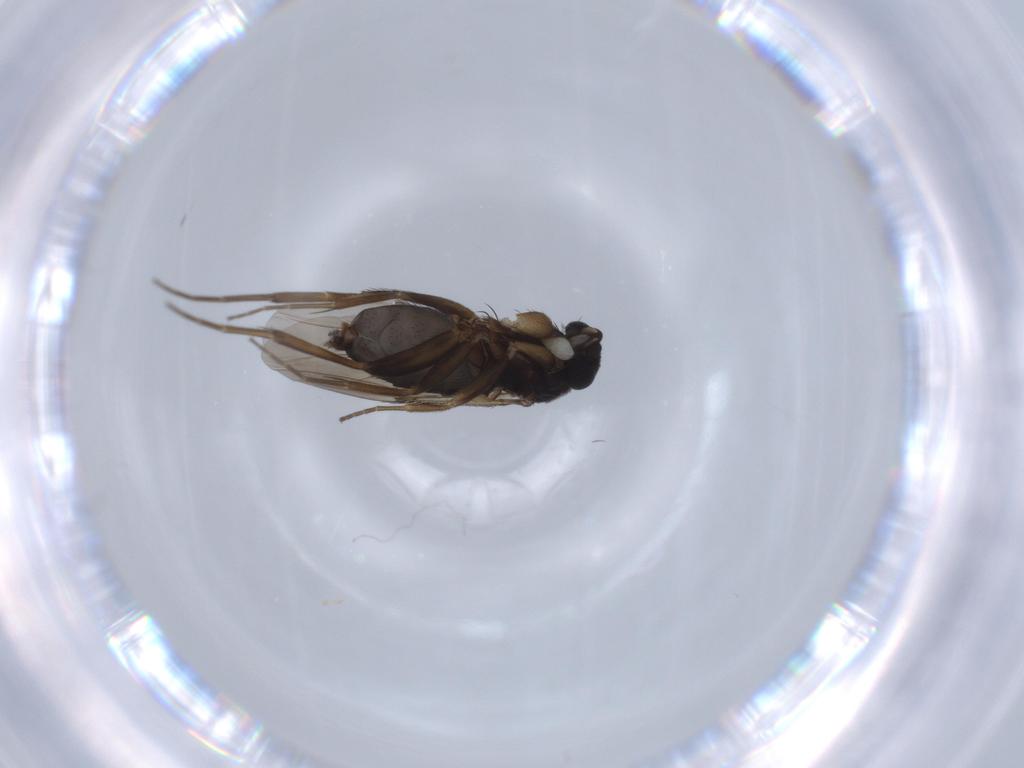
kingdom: Animalia
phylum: Arthropoda
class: Insecta
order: Diptera
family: Phoridae
